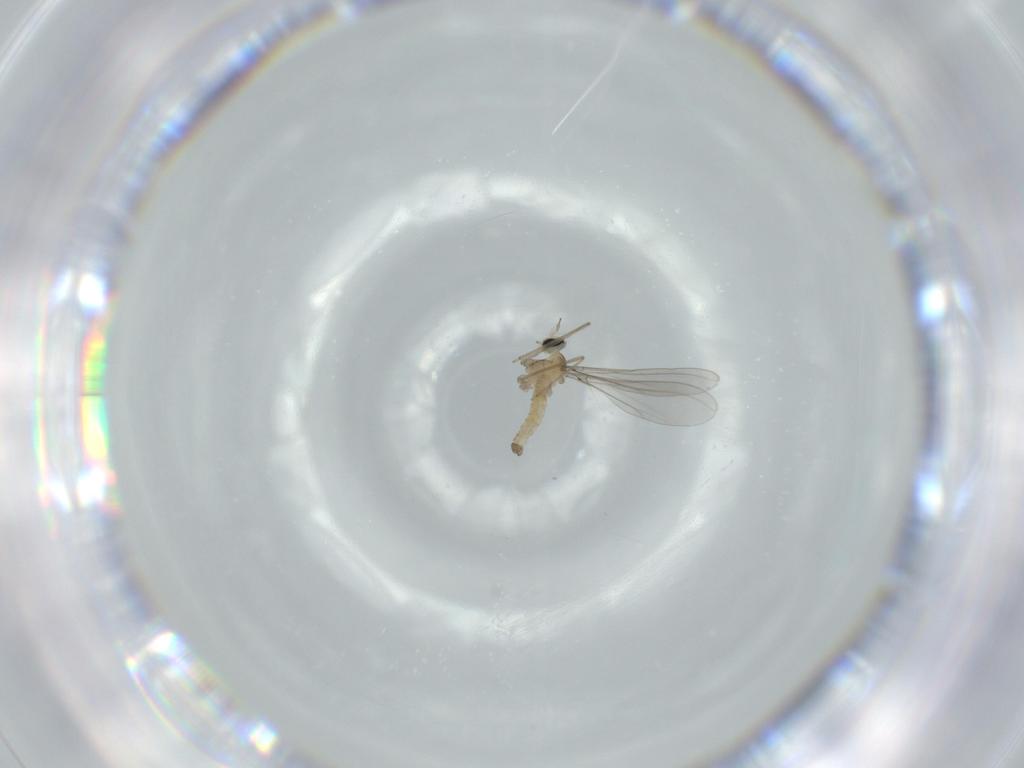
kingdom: Animalia
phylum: Arthropoda
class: Insecta
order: Diptera
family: Cecidomyiidae
